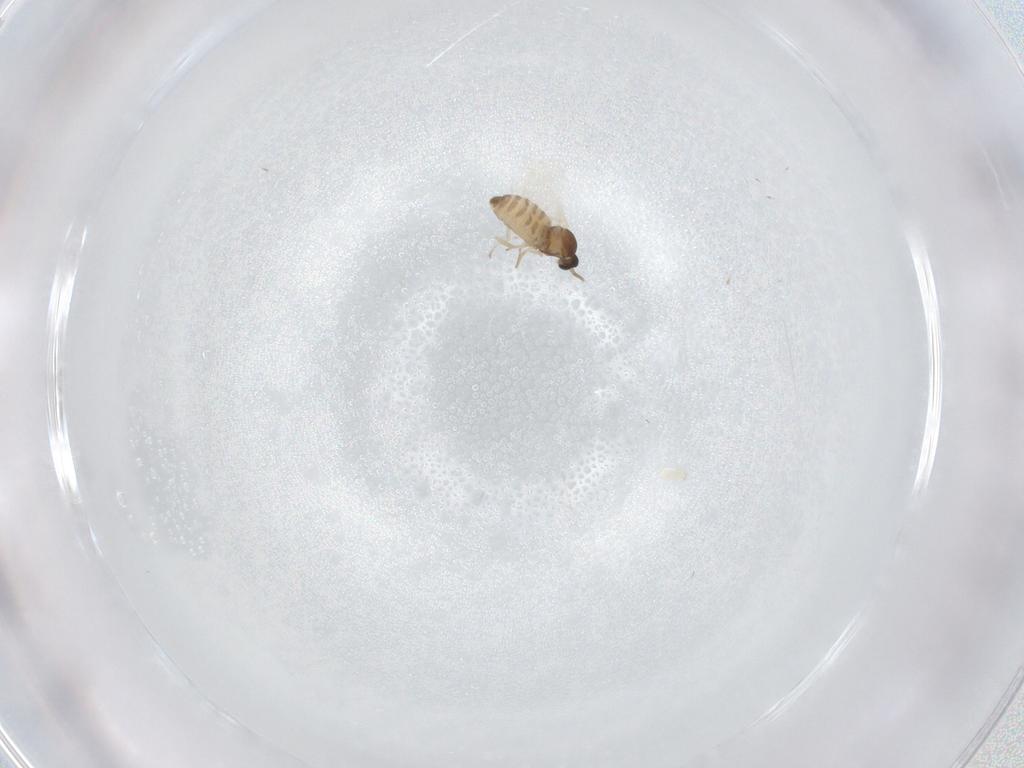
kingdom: Animalia
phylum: Arthropoda
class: Insecta
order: Diptera
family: Cecidomyiidae
